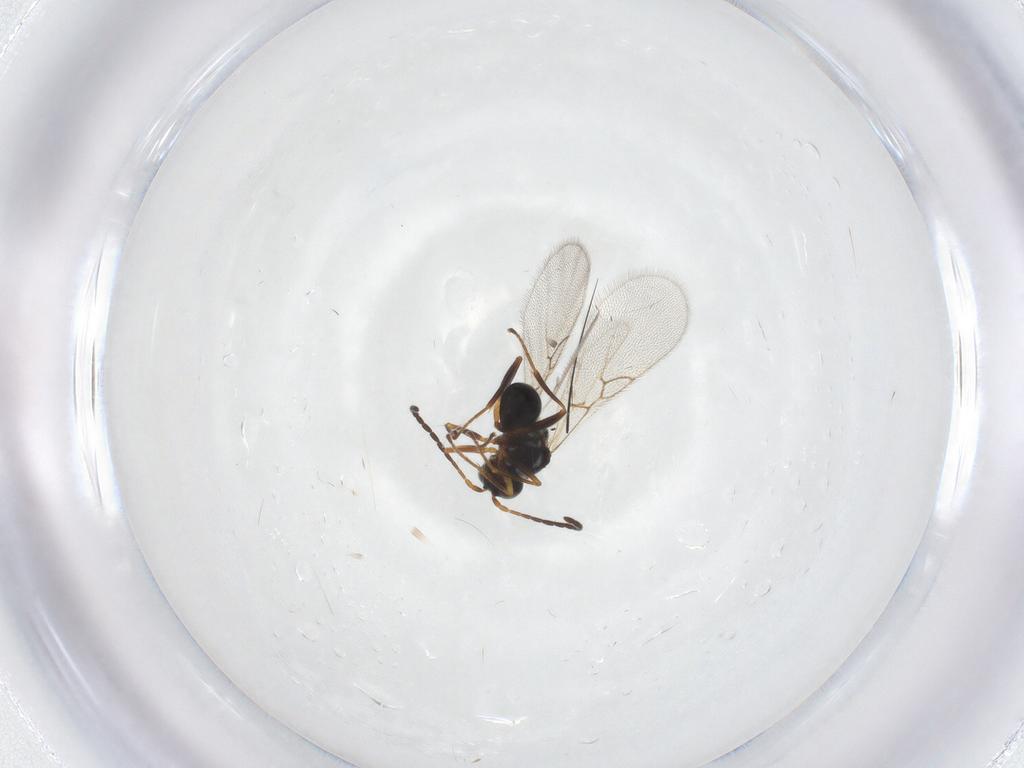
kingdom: Animalia
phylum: Arthropoda
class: Insecta
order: Hymenoptera
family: Figitidae
